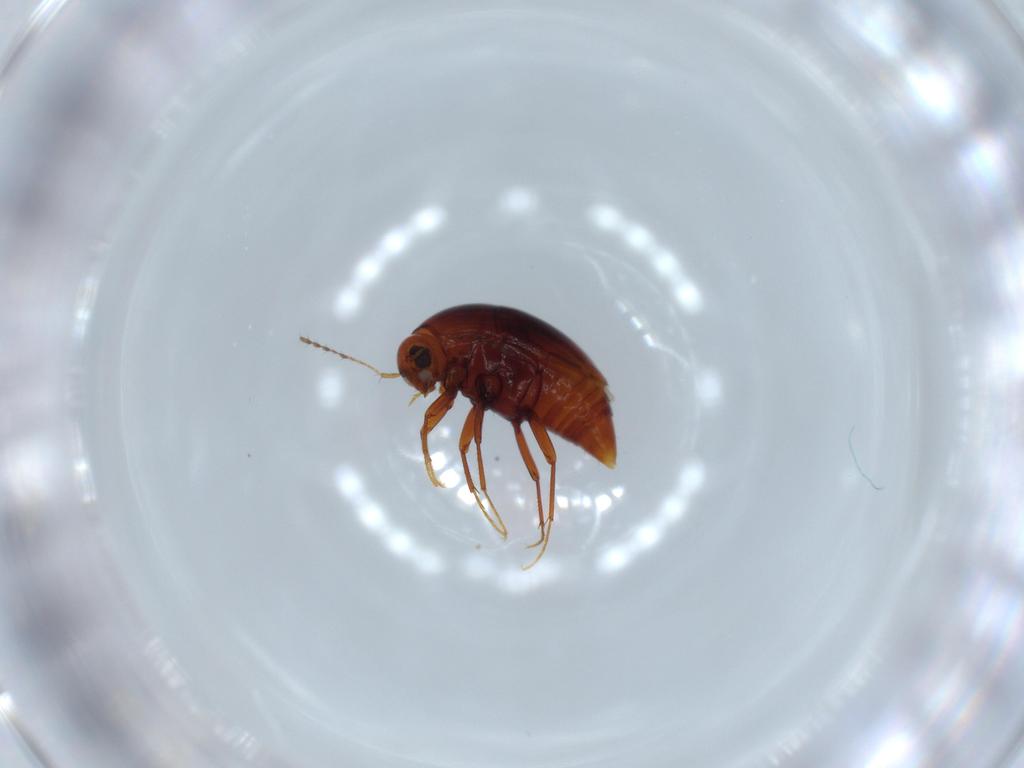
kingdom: Animalia
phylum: Arthropoda
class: Insecta
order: Coleoptera
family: Staphylinidae
